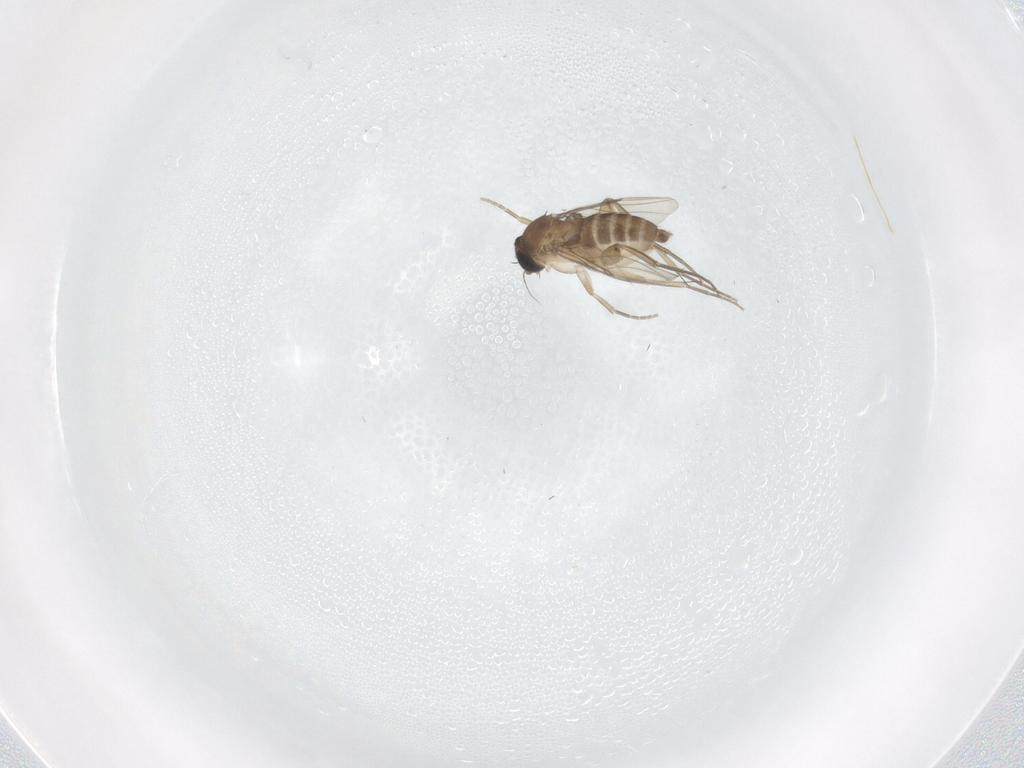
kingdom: Animalia
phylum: Arthropoda
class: Insecta
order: Diptera
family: Phoridae
